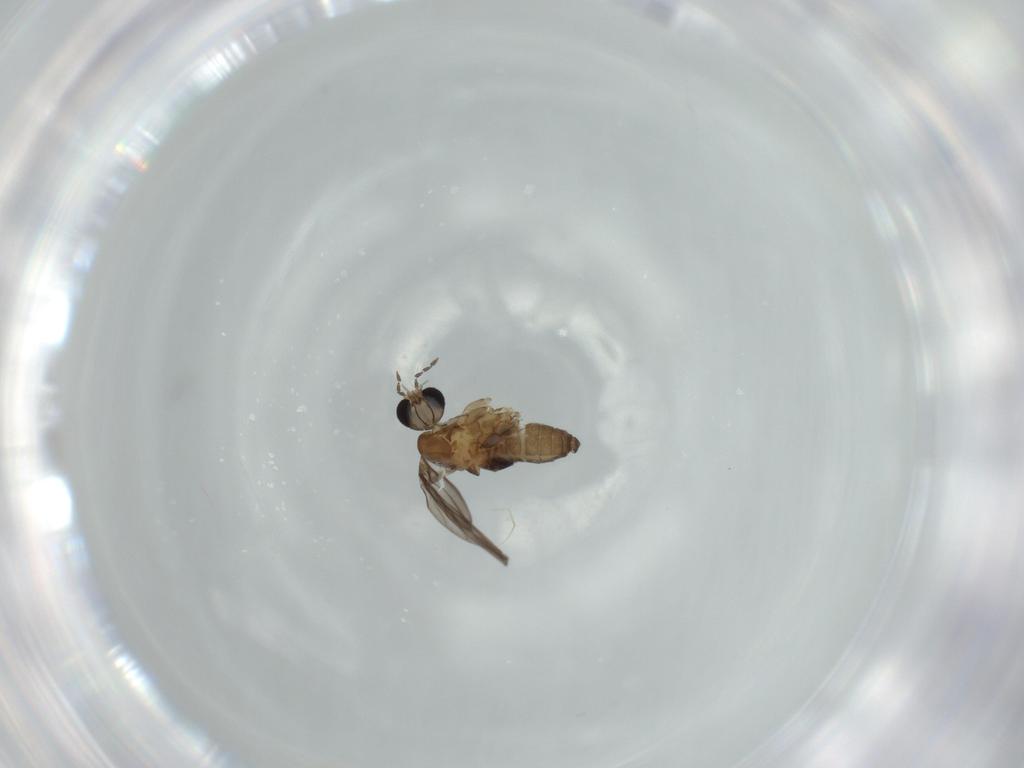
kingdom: Animalia
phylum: Arthropoda
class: Insecta
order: Diptera
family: Psychodidae
